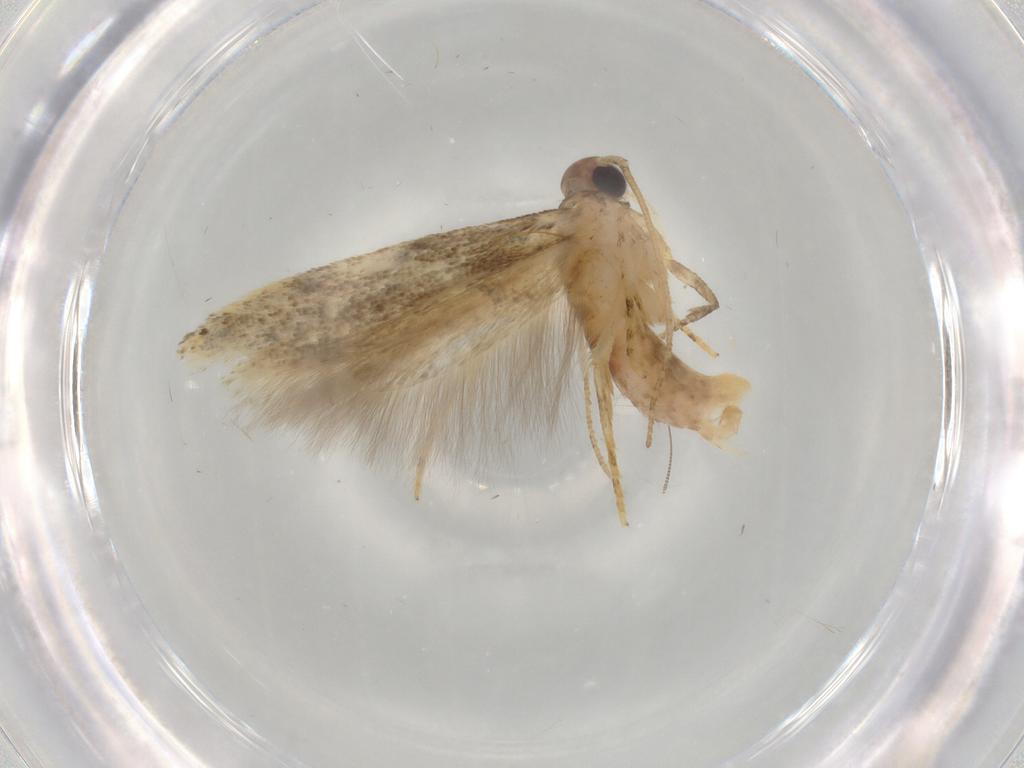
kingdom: Animalia
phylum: Arthropoda
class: Insecta
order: Lepidoptera
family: Gelechiidae
